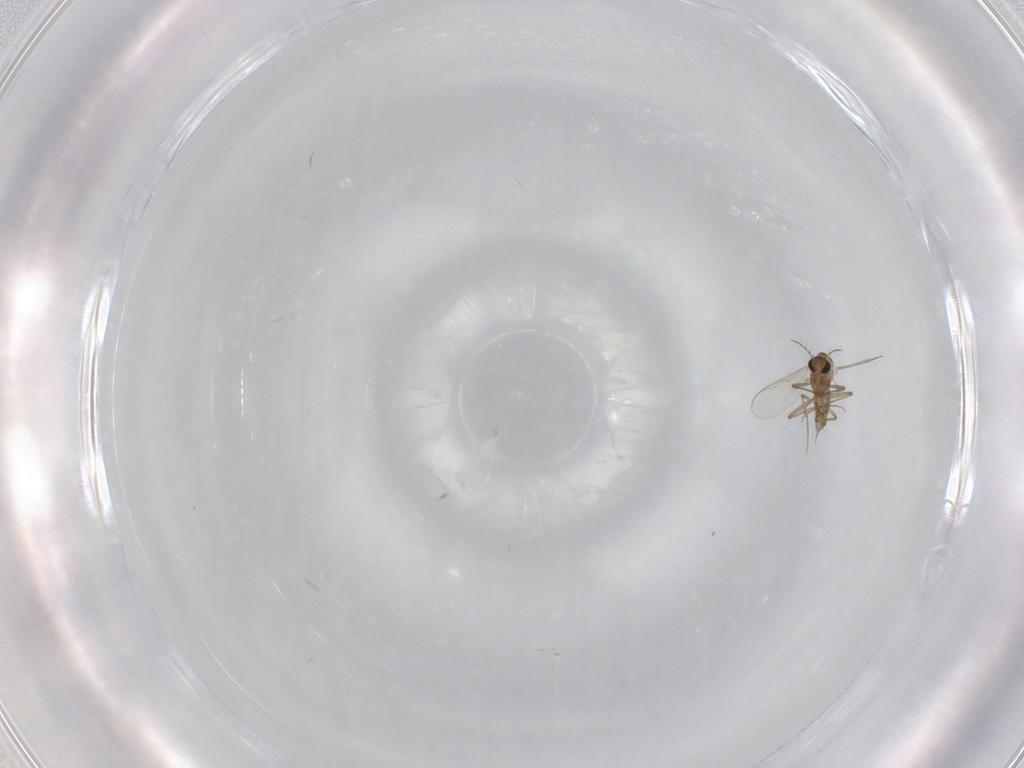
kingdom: Animalia
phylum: Arthropoda
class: Insecta
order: Diptera
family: Chironomidae
